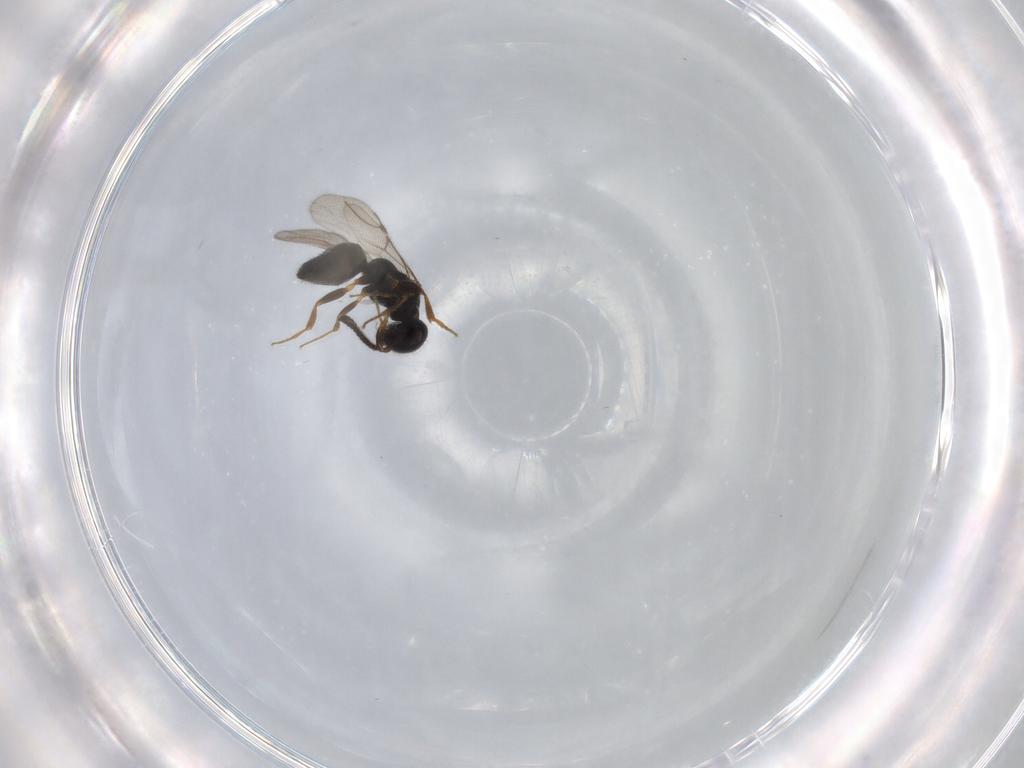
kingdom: Animalia
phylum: Arthropoda
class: Insecta
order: Hymenoptera
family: Bethylidae
